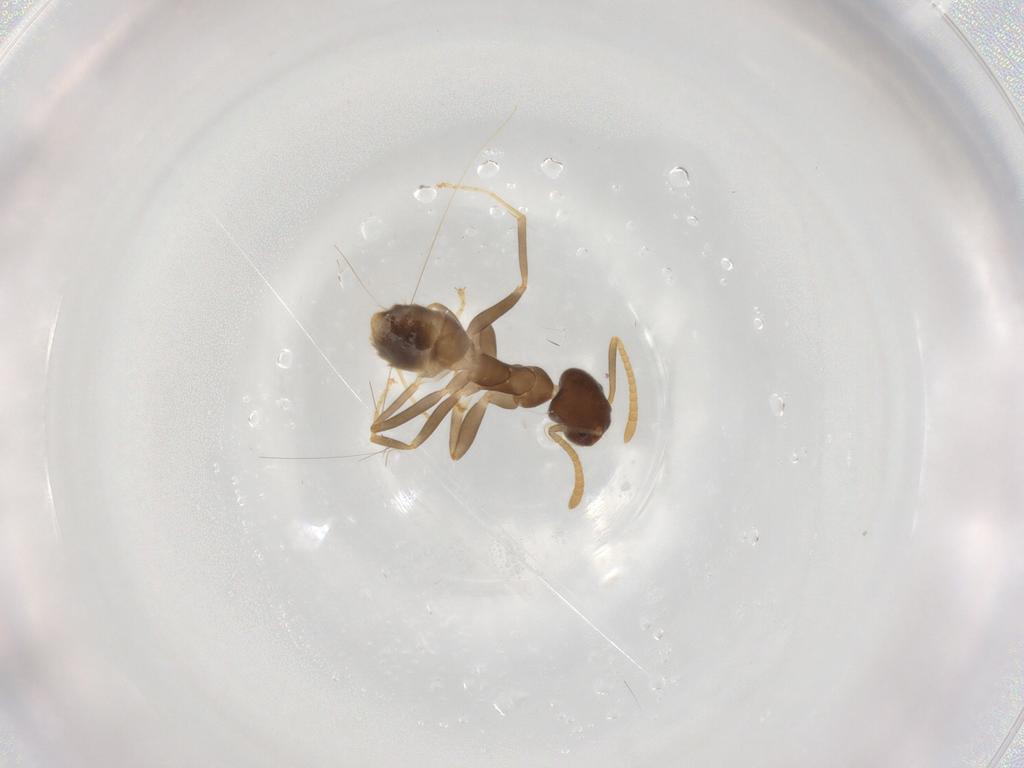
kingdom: Animalia
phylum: Arthropoda
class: Insecta
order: Hymenoptera
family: Formicidae
